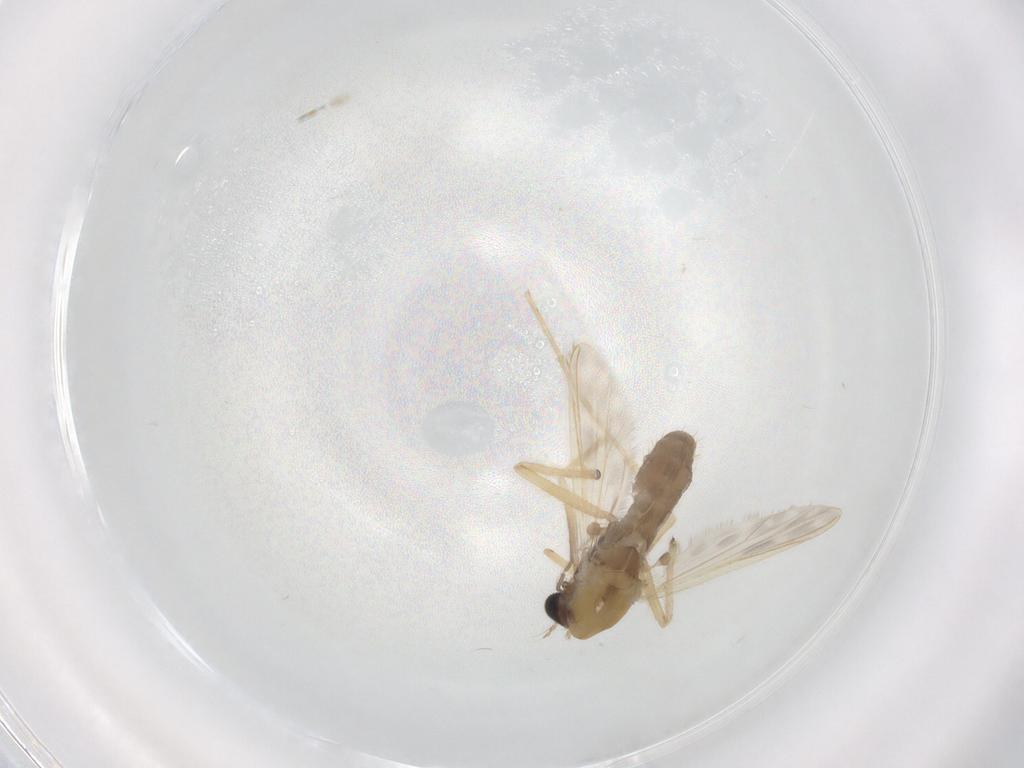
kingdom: Animalia
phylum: Arthropoda
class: Insecta
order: Diptera
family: Chironomidae
